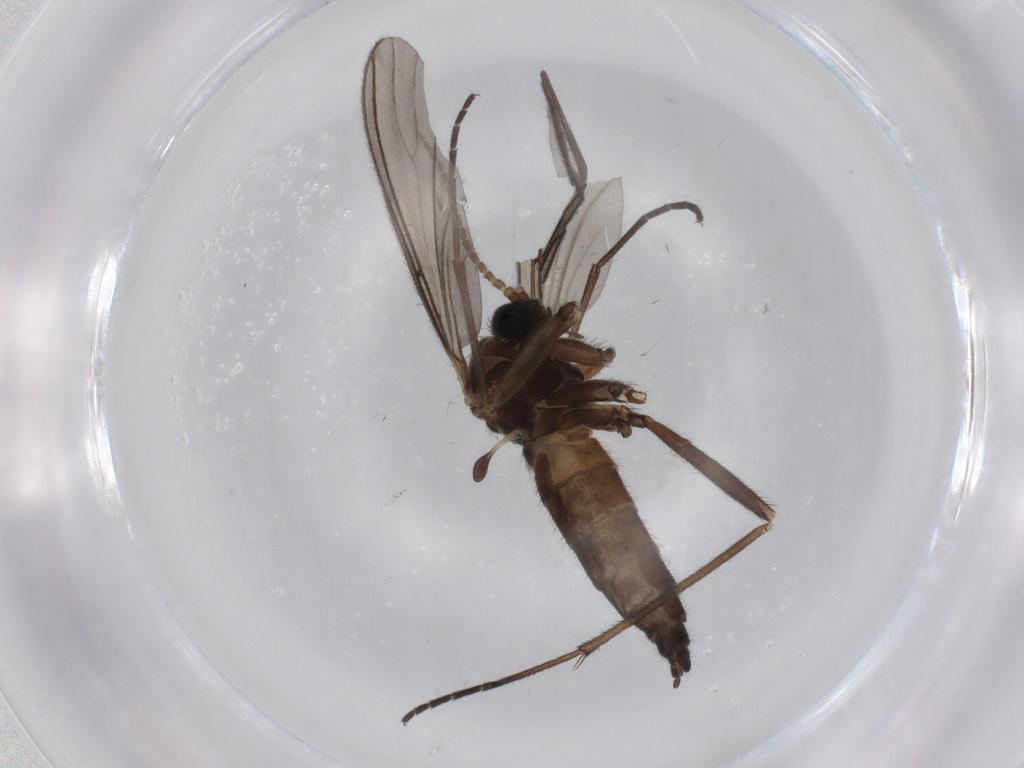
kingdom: Animalia
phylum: Arthropoda
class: Insecta
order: Diptera
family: Sciaridae
